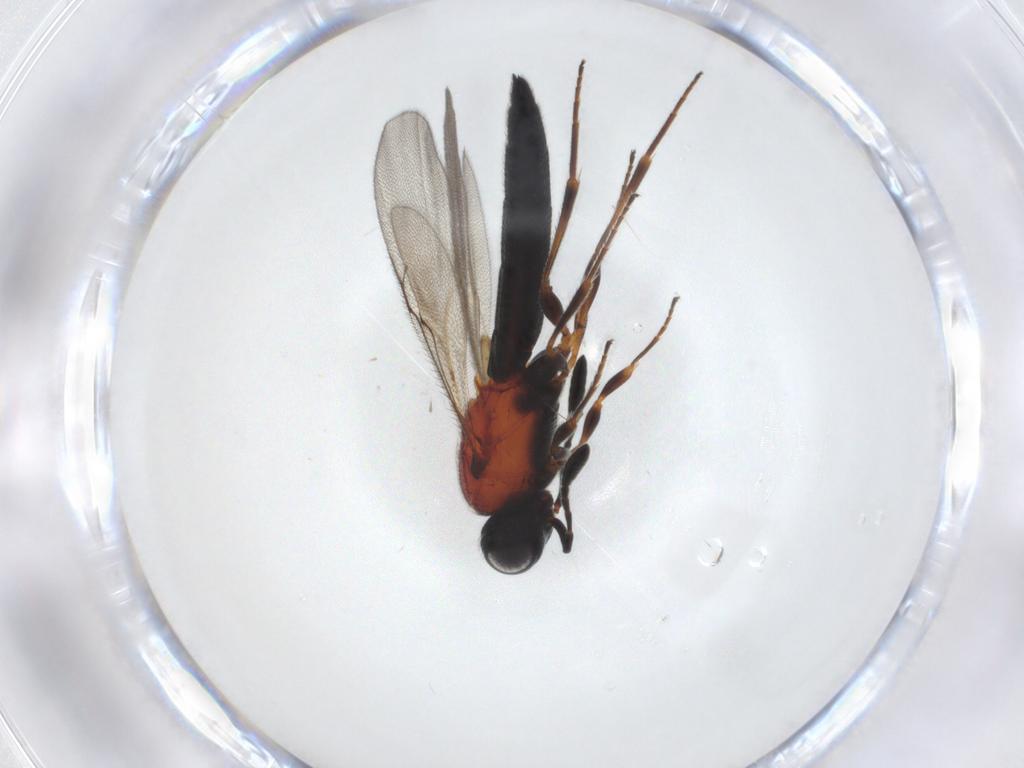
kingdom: Animalia
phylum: Arthropoda
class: Insecta
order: Hymenoptera
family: Scelionidae
